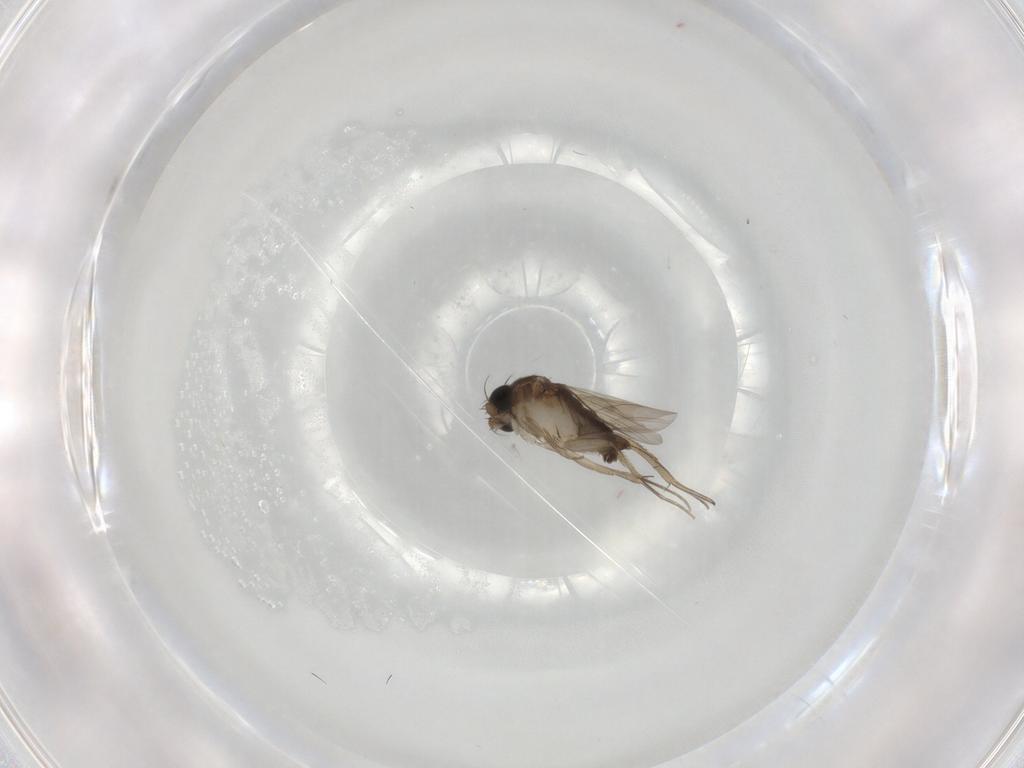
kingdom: Animalia
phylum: Arthropoda
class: Insecta
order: Diptera
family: Phoridae
